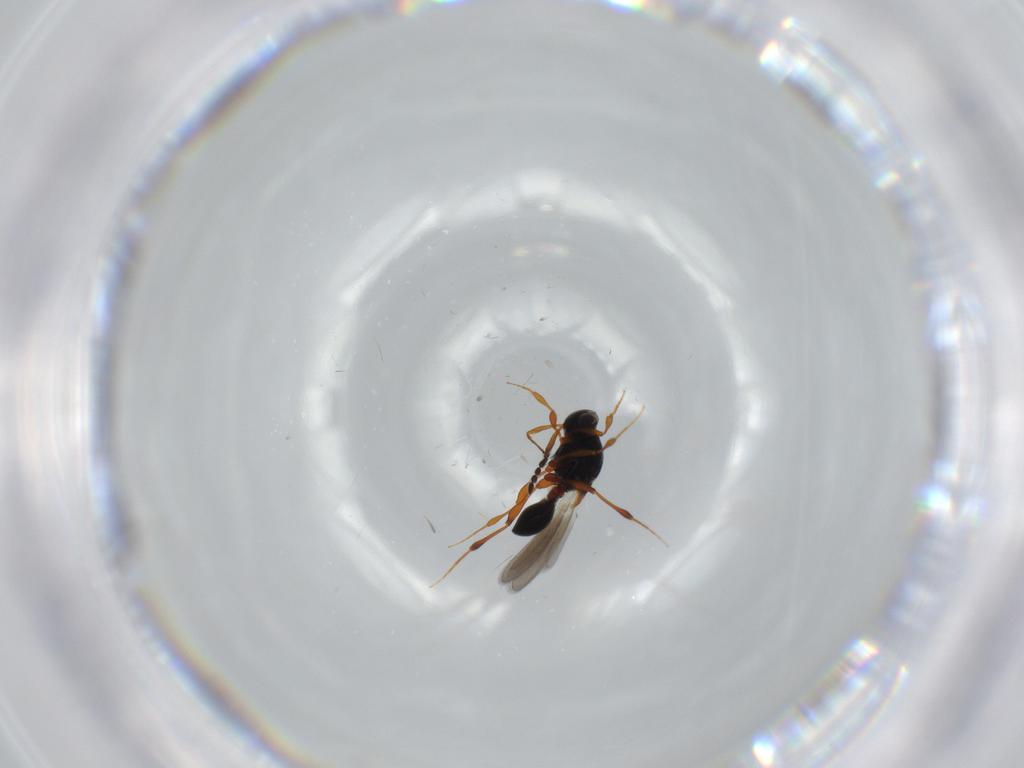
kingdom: Animalia
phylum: Arthropoda
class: Insecta
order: Hymenoptera
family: Platygastridae
